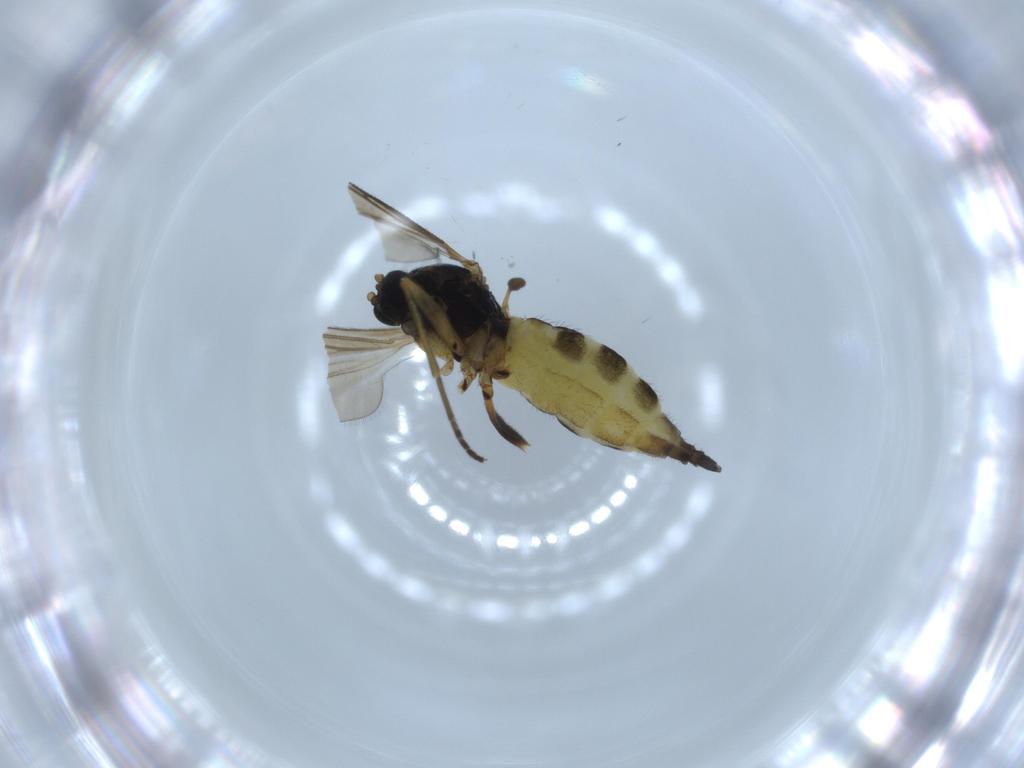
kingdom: Animalia
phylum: Arthropoda
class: Insecta
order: Diptera
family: Sciaridae
